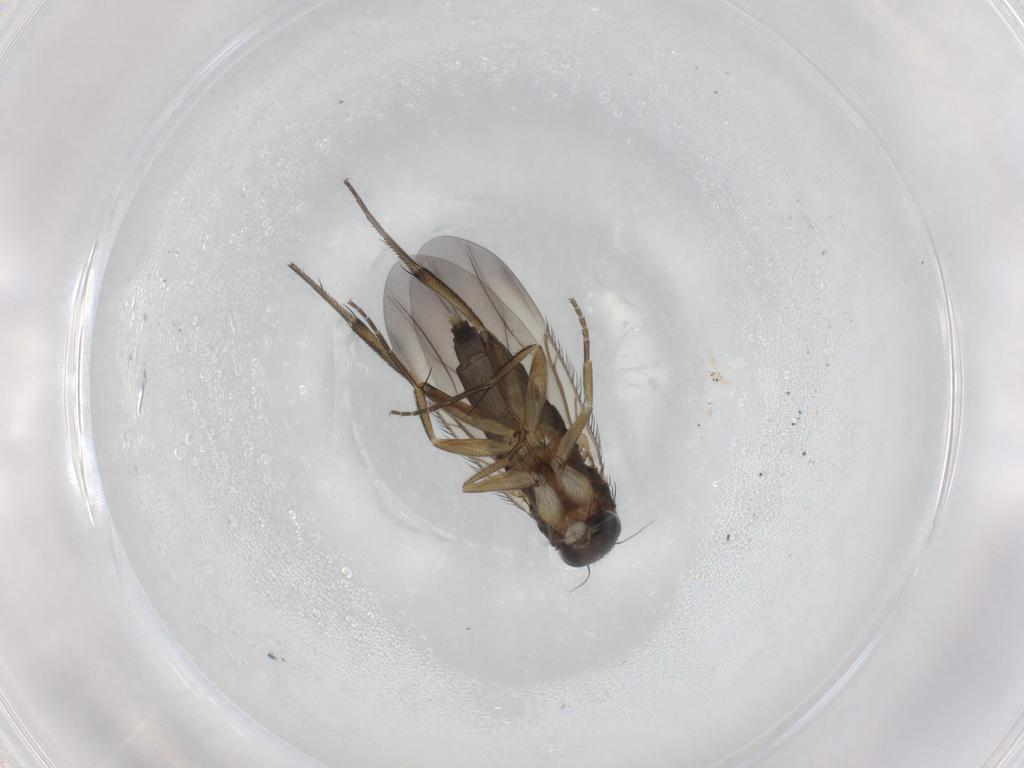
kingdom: Animalia
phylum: Arthropoda
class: Insecta
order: Diptera
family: Phoridae
